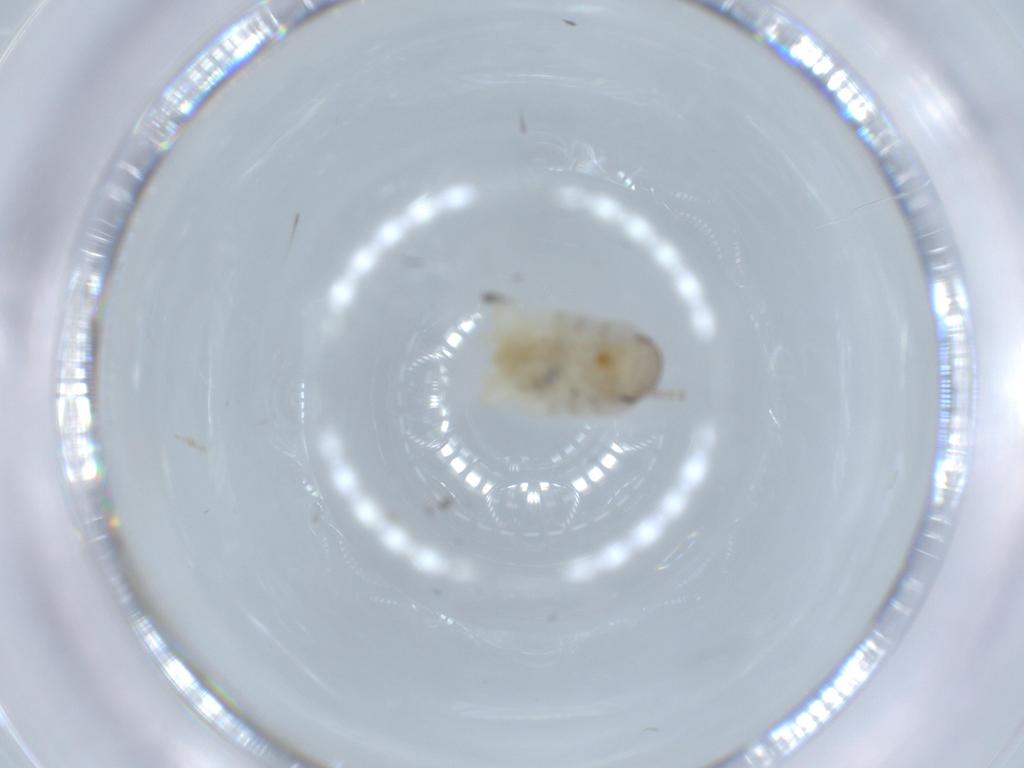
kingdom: Animalia
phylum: Arthropoda
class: Insecta
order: Blattodea
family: Ectobiidae
